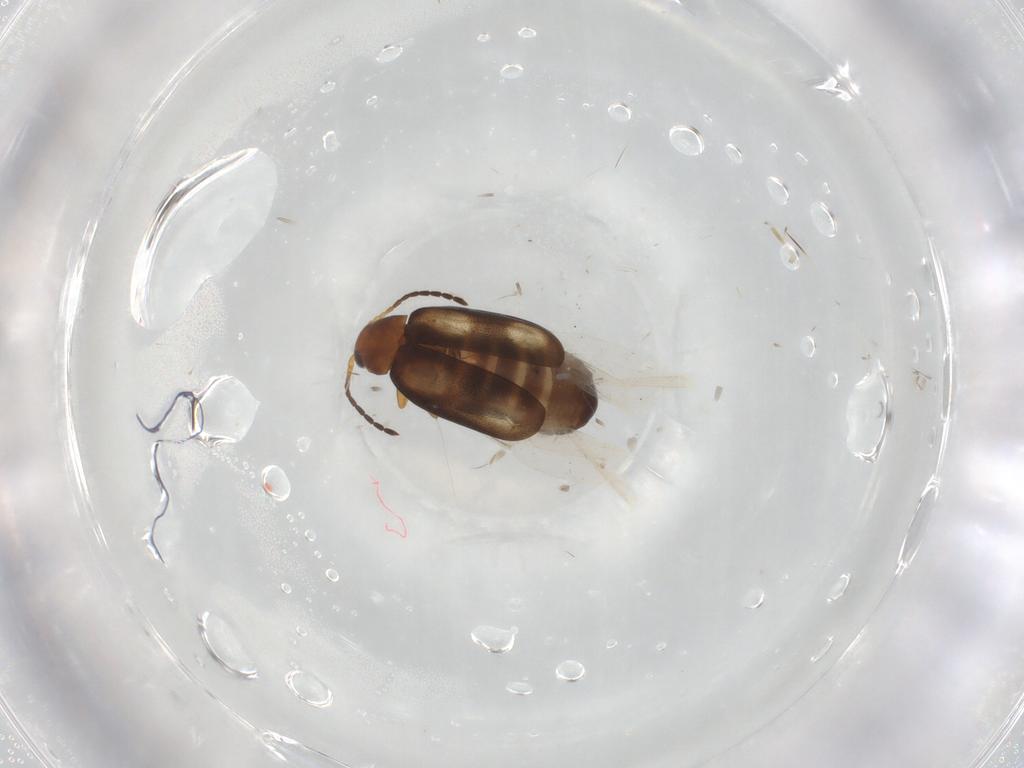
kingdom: Animalia
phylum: Arthropoda
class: Insecta
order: Coleoptera
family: Chrysomelidae
